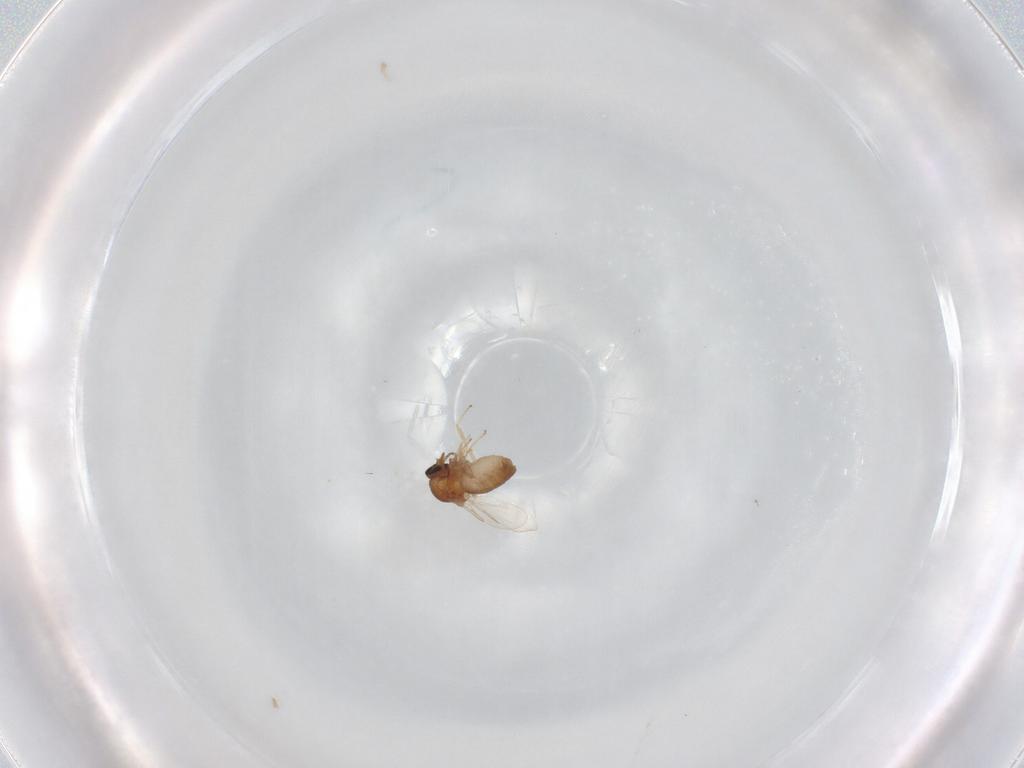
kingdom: Animalia
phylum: Arthropoda
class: Insecta
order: Diptera
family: Ceratopogonidae
